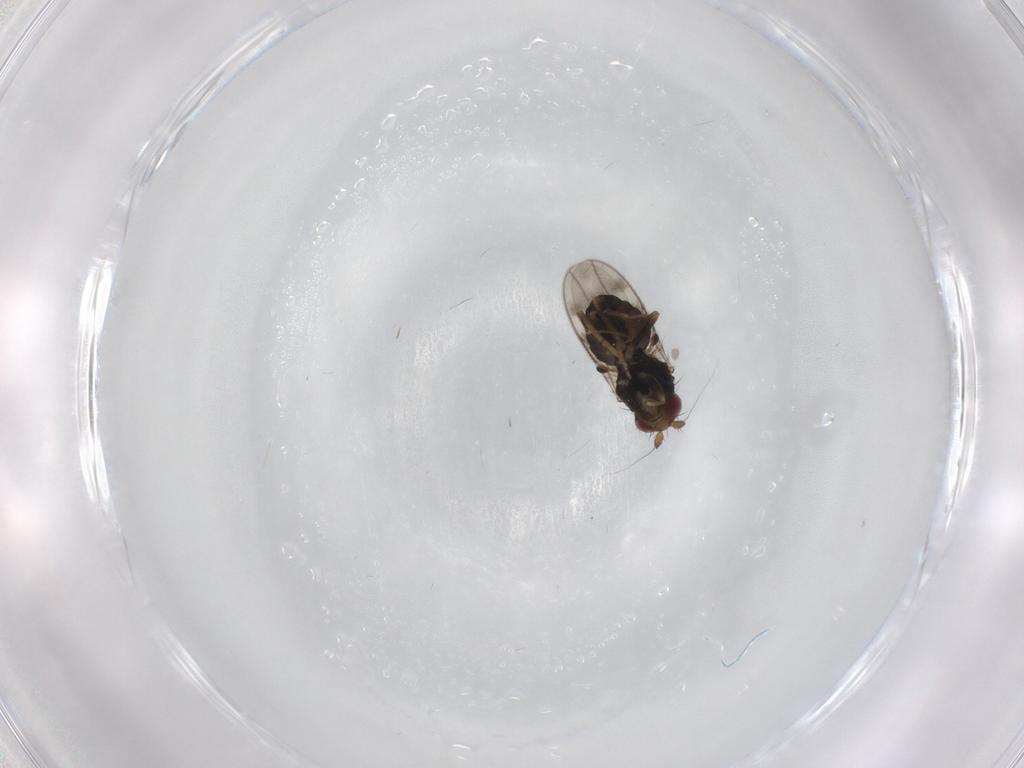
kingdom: Animalia
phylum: Arthropoda
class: Insecta
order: Diptera
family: Sphaeroceridae
